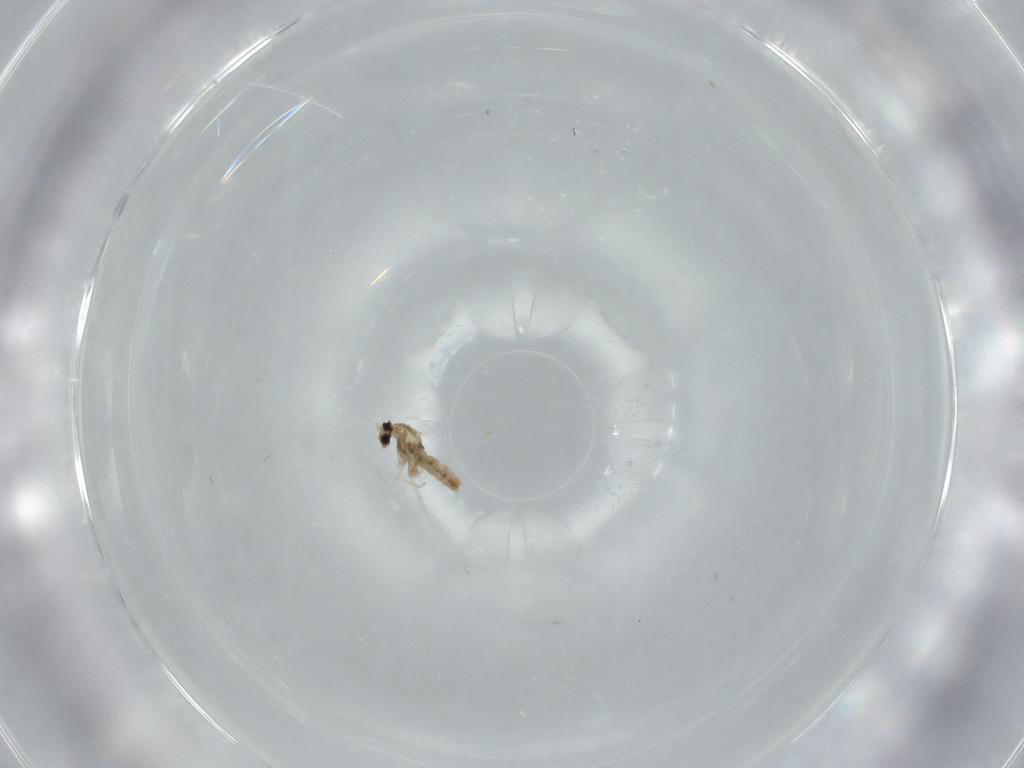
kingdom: Animalia
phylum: Arthropoda
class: Insecta
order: Diptera
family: Cecidomyiidae
